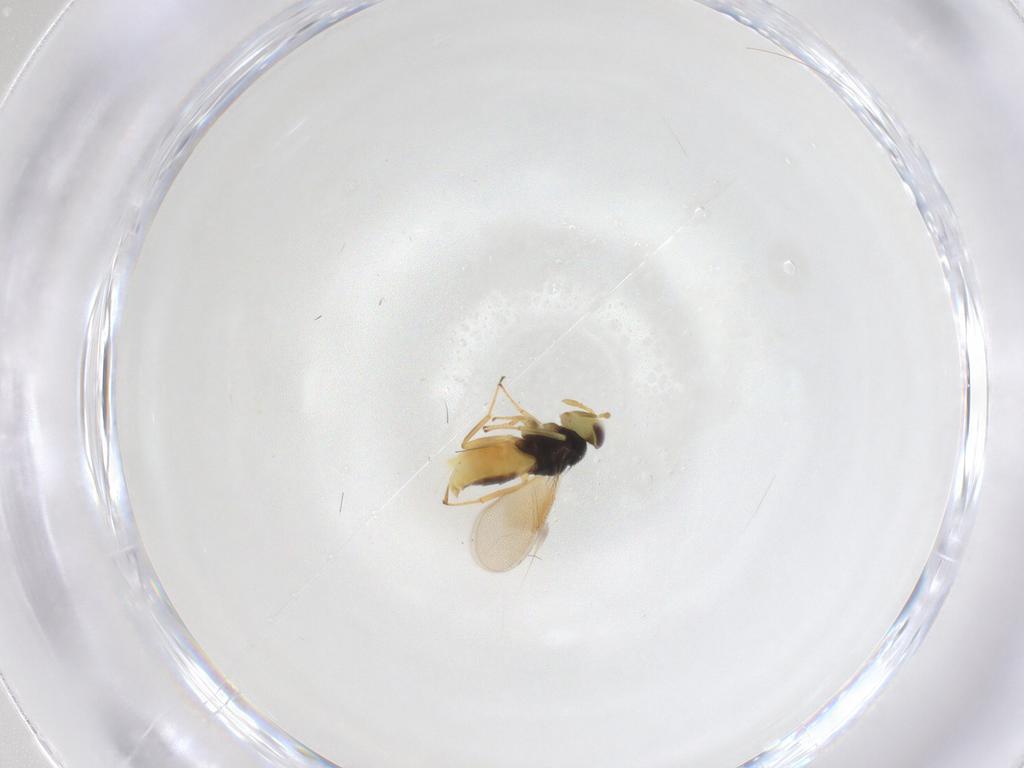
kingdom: Animalia
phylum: Arthropoda
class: Insecta
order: Hymenoptera
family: Aphelinidae
